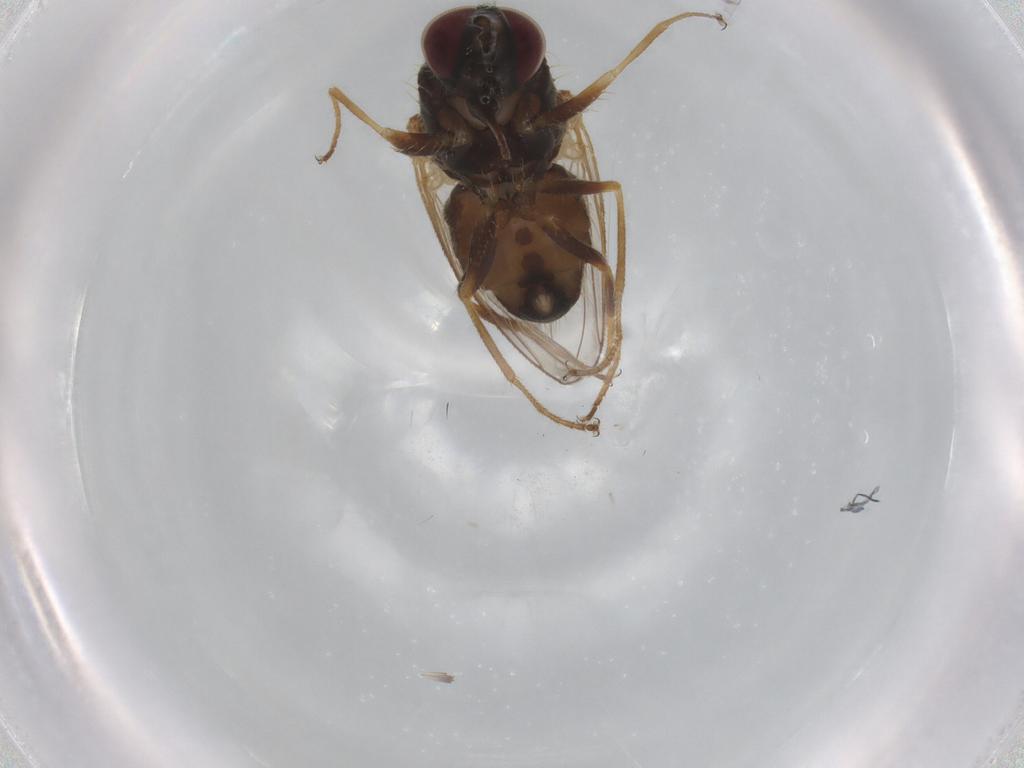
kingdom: Animalia
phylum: Arthropoda
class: Insecta
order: Diptera
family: Muscidae
